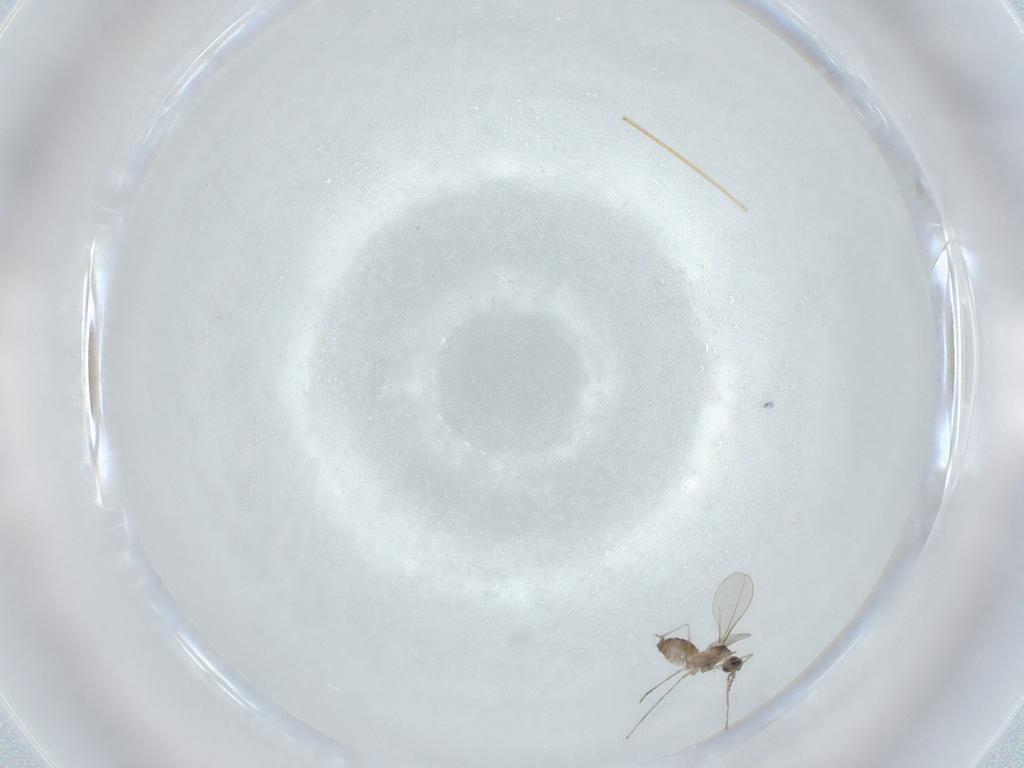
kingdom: Animalia
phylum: Arthropoda
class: Insecta
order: Diptera
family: Cecidomyiidae
